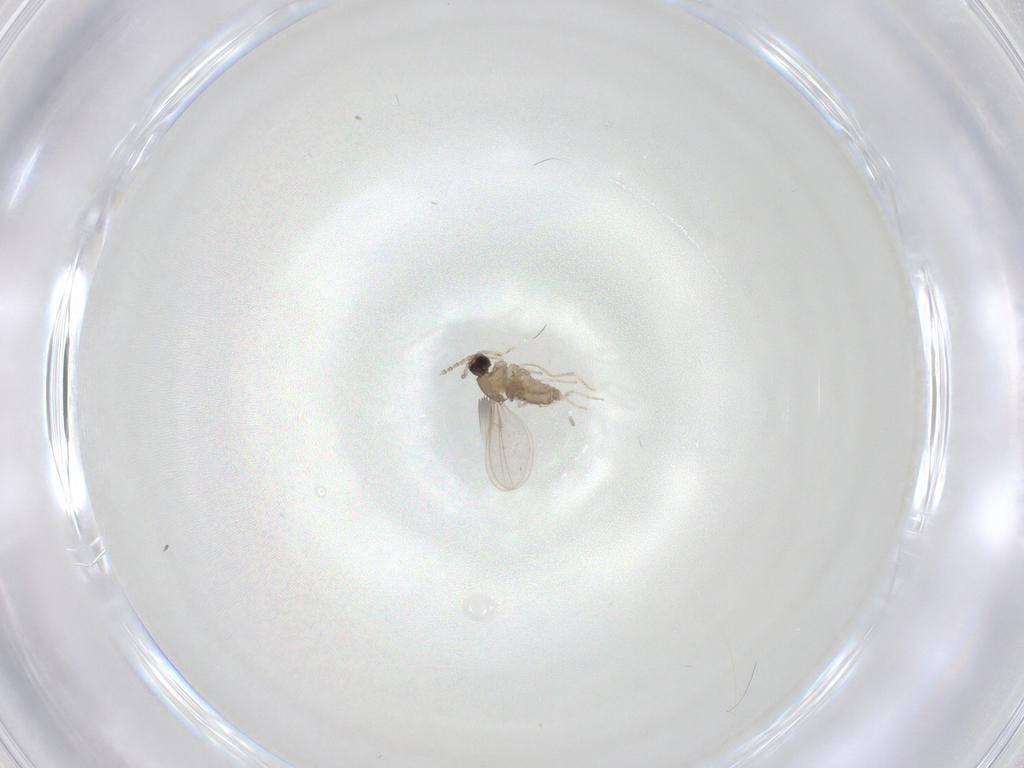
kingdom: Animalia
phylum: Arthropoda
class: Insecta
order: Diptera
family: Cecidomyiidae
